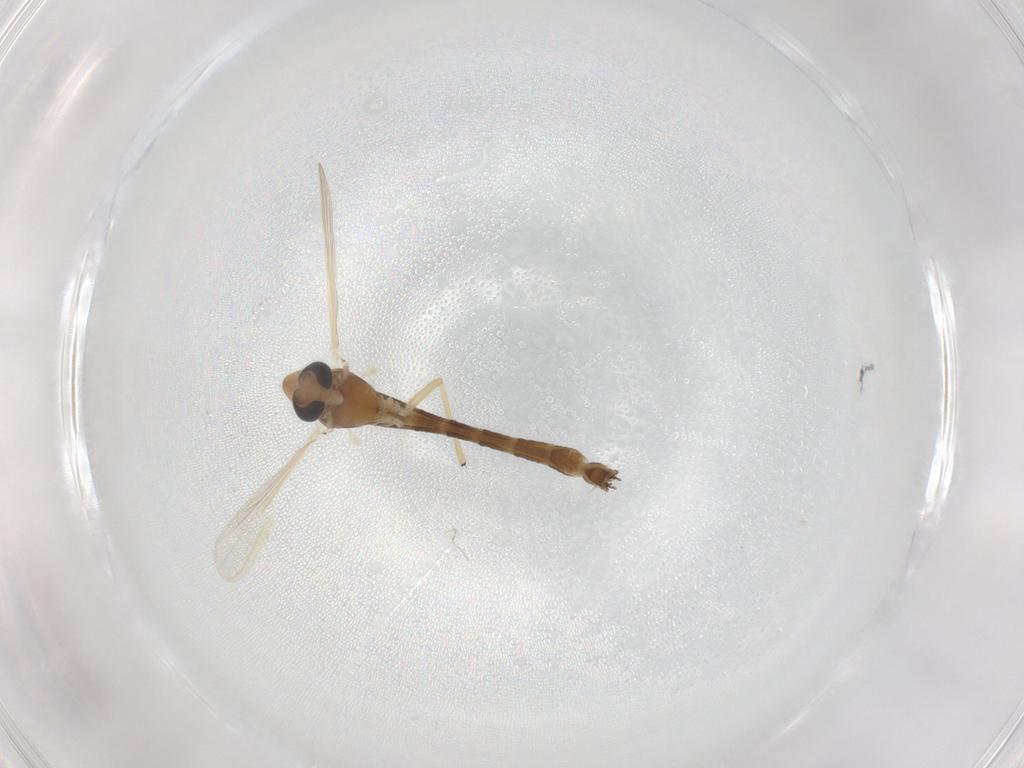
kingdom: Animalia
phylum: Arthropoda
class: Insecta
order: Diptera
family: Chironomidae
